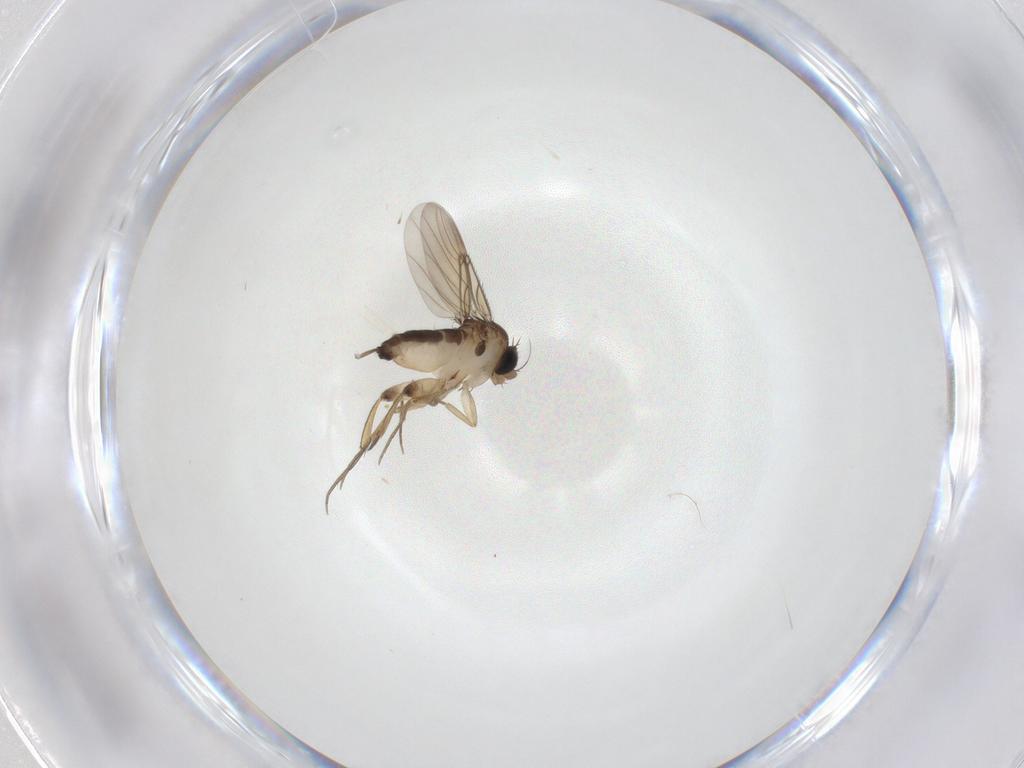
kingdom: Animalia
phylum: Arthropoda
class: Insecta
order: Diptera
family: Phoridae
